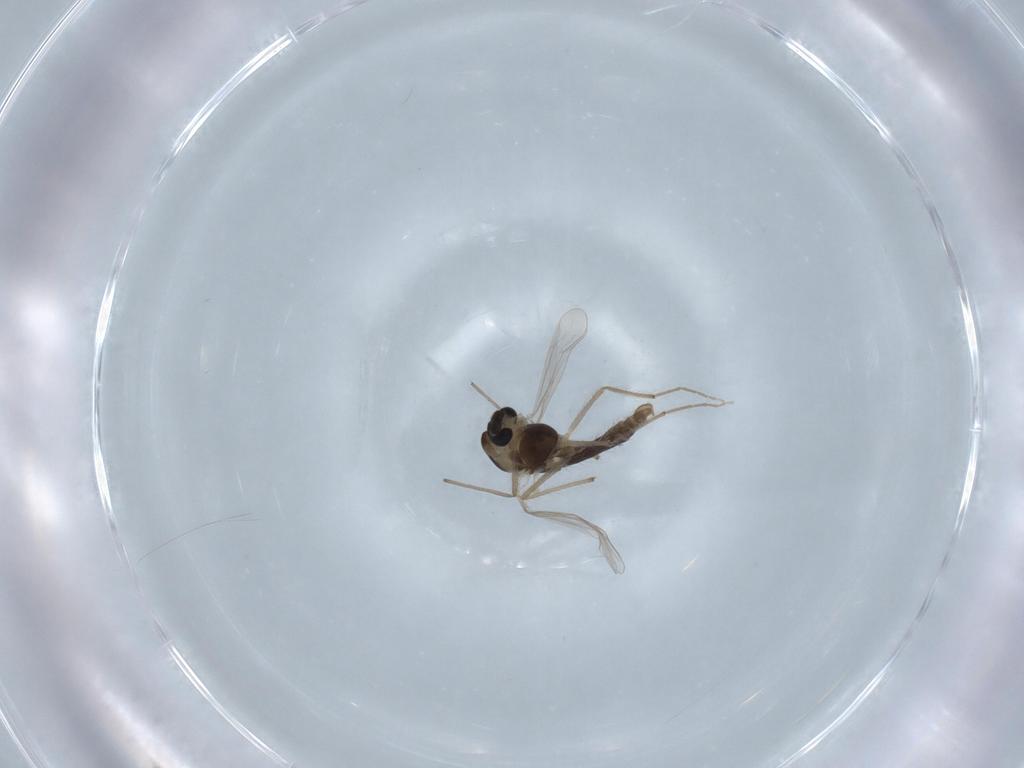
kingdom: Animalia
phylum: Arthropoda
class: Insecta
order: Diptera
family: Chironomidae
